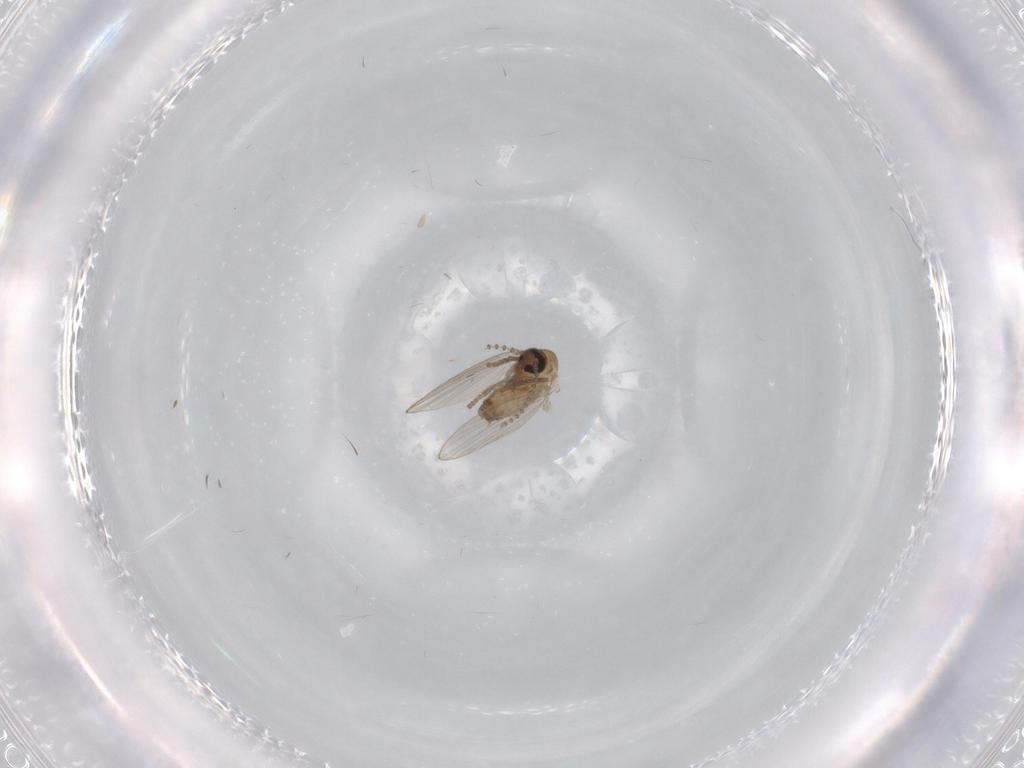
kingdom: Animalia
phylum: Arthropoda
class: Insecta
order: Diptera
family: Psychodidae
